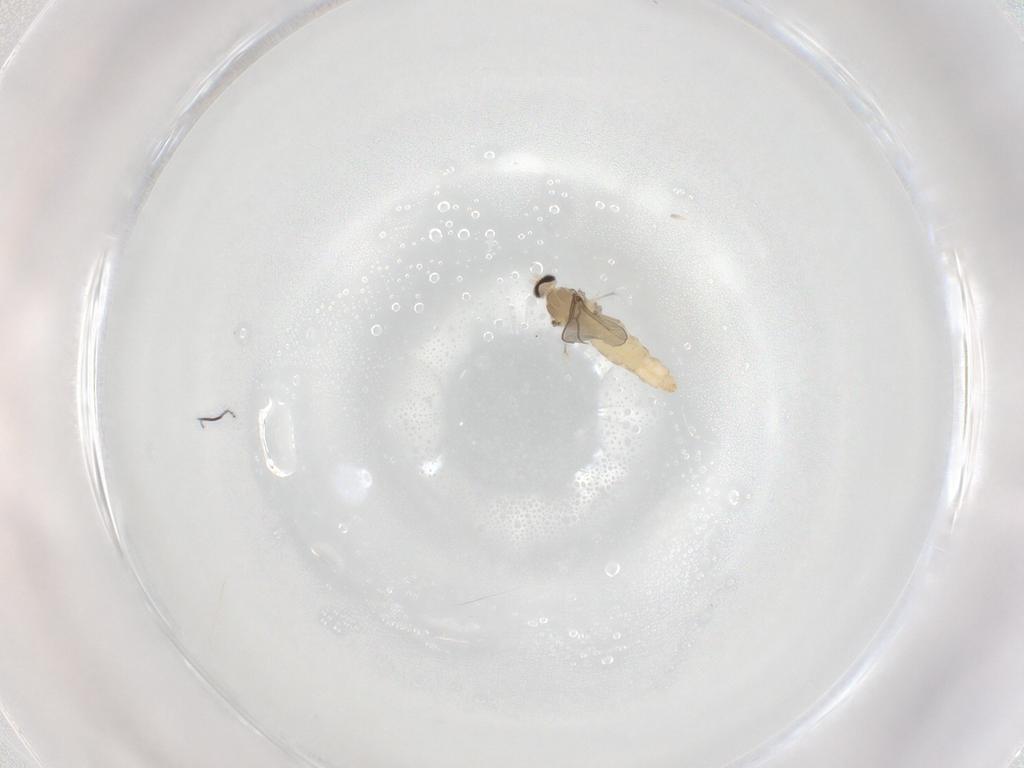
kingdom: Animalia
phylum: Arthropoda
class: Insecta
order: Diptera
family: Cecidomyiidae
